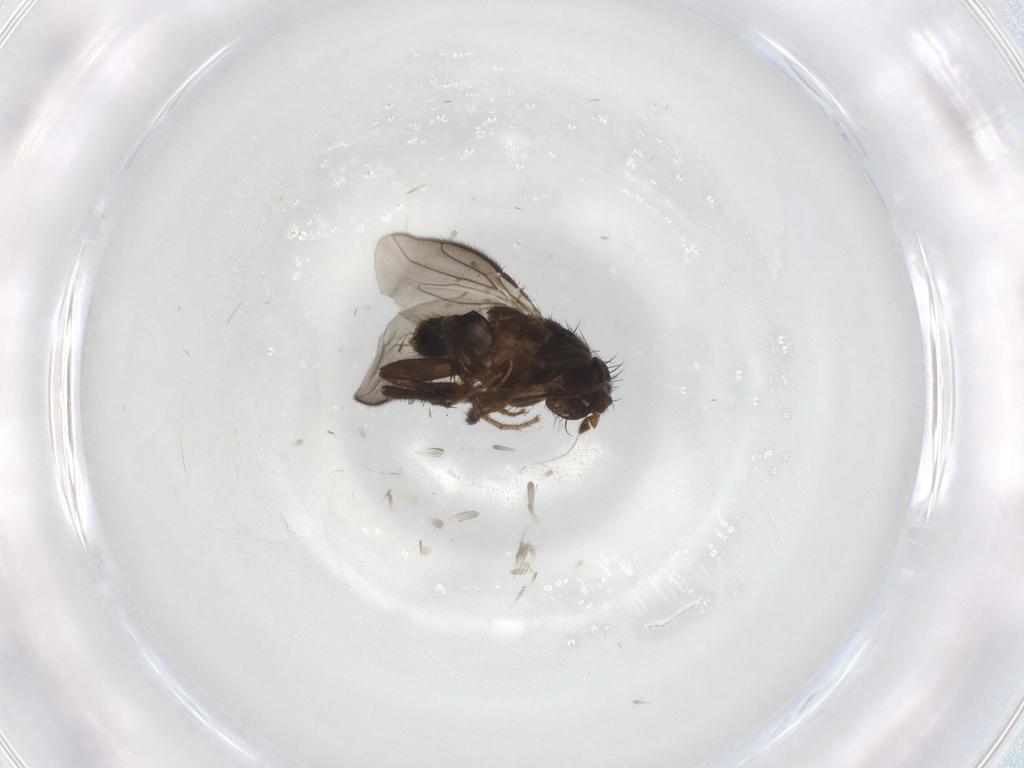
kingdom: Animalia
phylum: Arthropoda
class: Insecta
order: Diptera
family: Sphaeroceridae
